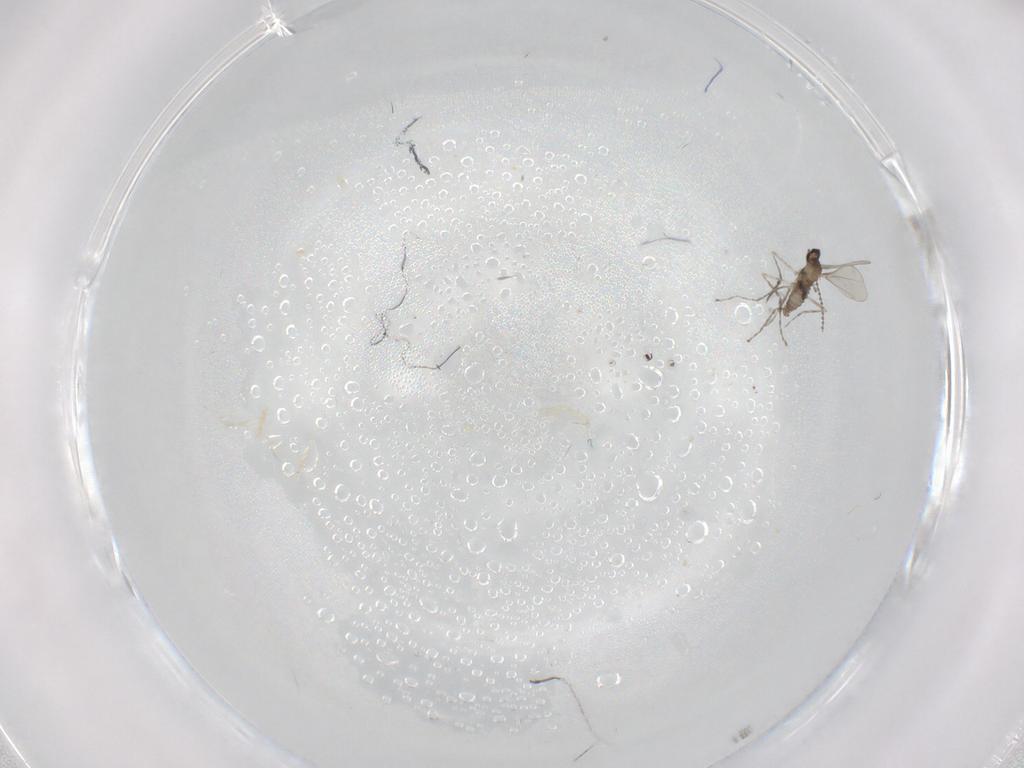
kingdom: Animalia
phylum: Arthropoda
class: Insecta
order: Diptera
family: Cecidomyiidae
